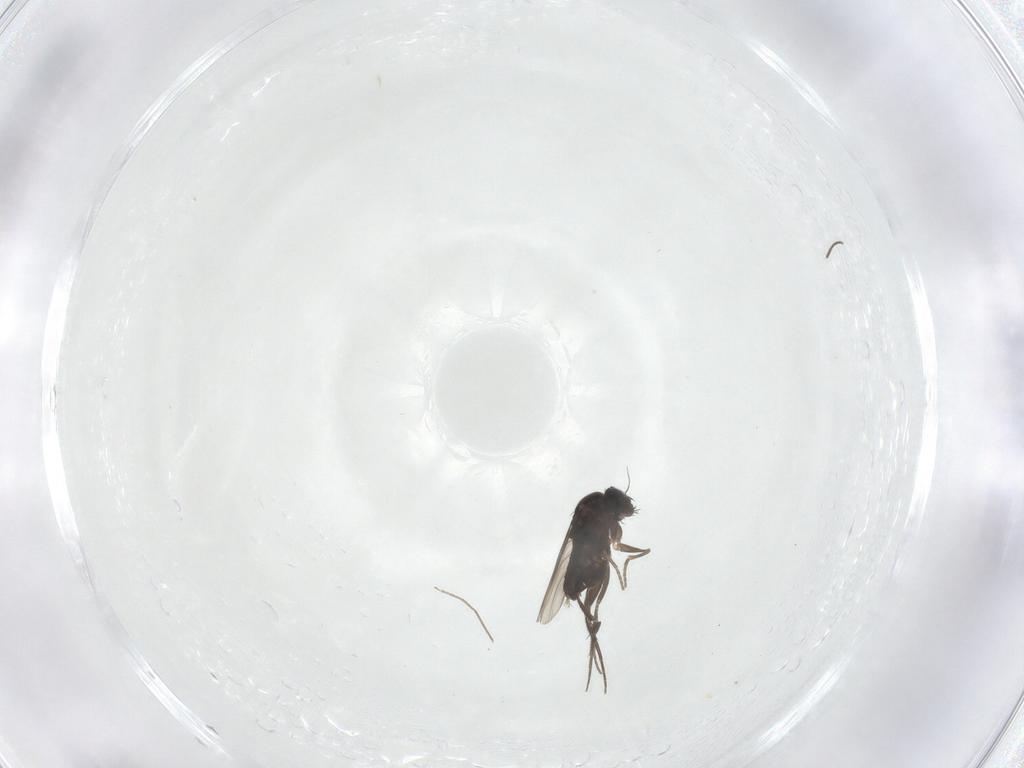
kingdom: Animalia
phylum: Arthropoda
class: Insecta
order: Diptera
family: Phoridae
